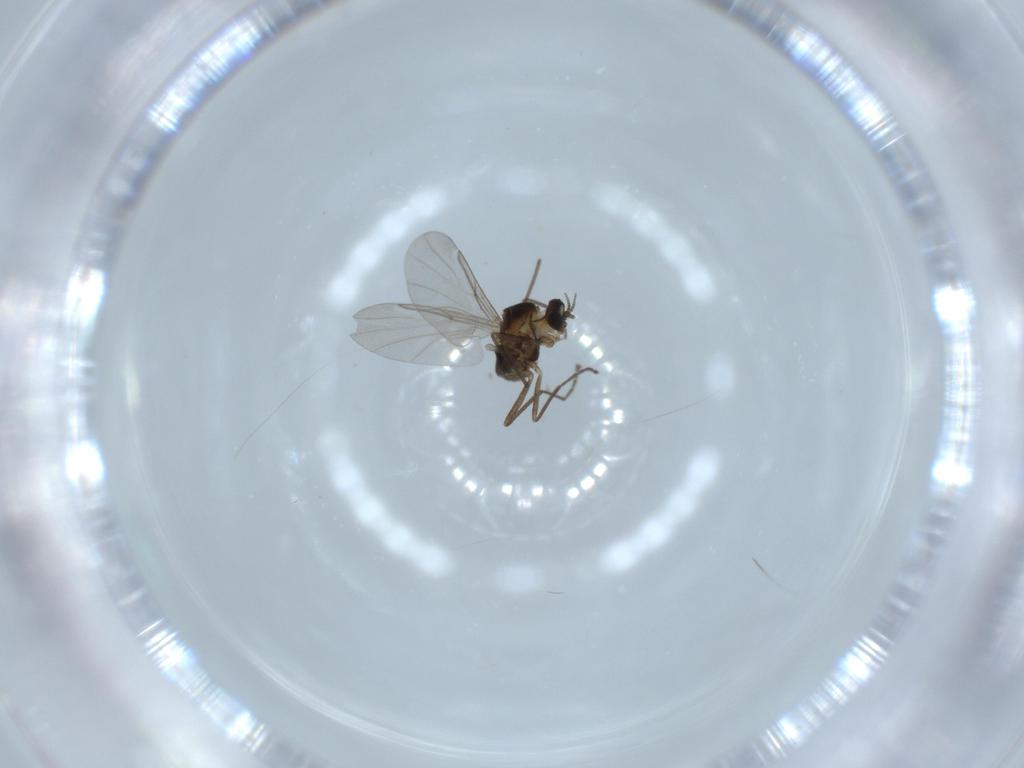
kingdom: Animalia
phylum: Arthropoda
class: Insecta
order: Diptera
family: Cecidomyiidae
